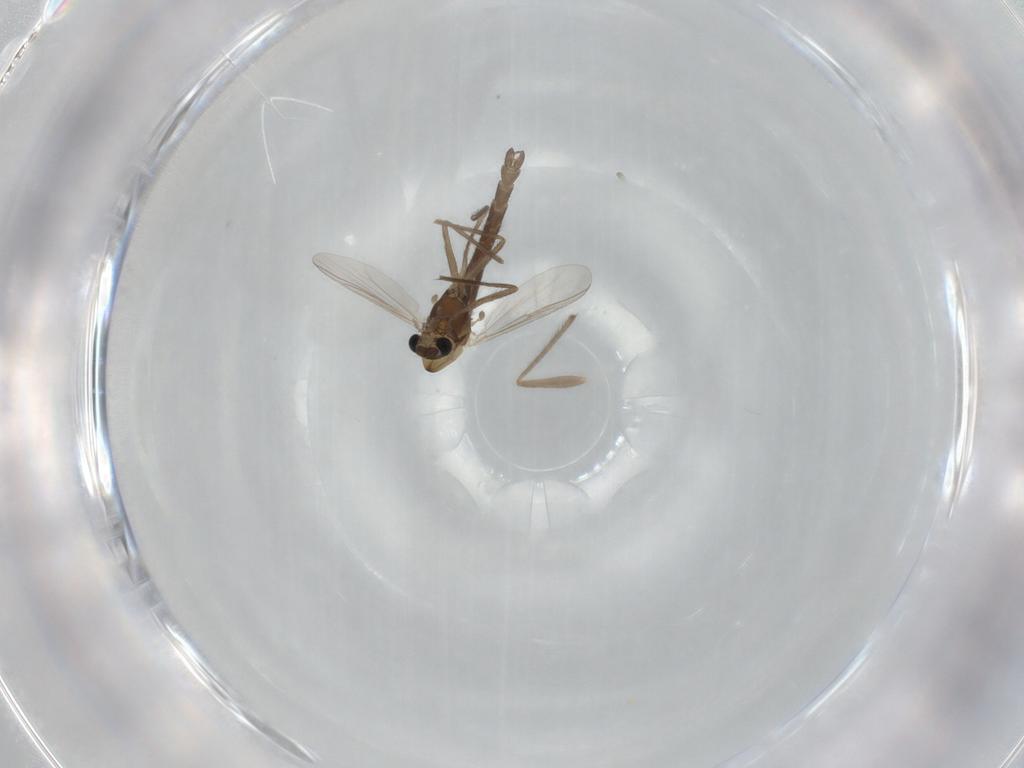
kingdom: Animalia
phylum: Arthropoda
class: Insecta
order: Diptera
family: Chironomidae
